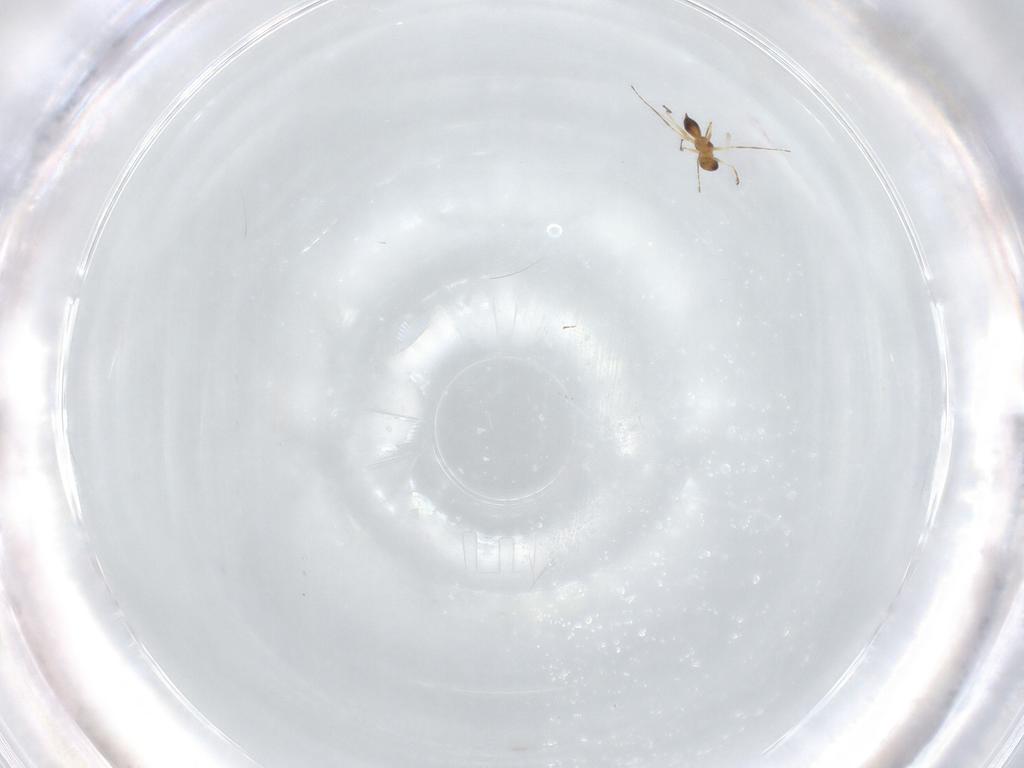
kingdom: Animalia
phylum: Arthropoda
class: Insecta
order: Hymenoptera
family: Mymaridae
